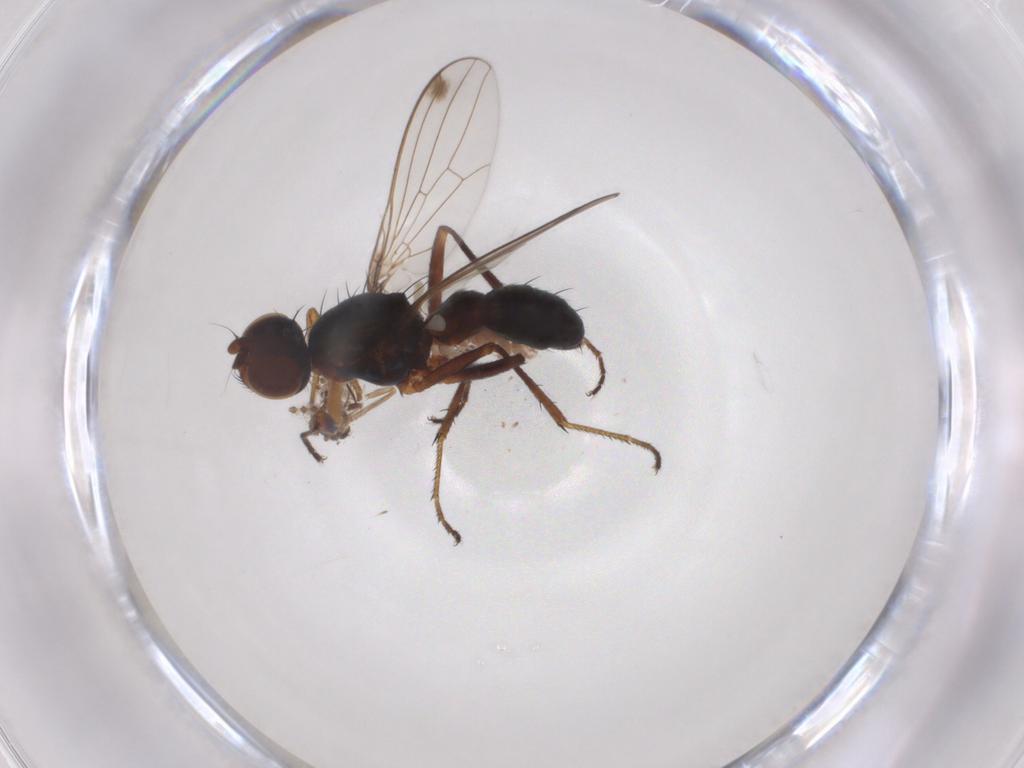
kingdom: Animalia
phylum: Arthropoda
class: Insecta
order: Diptera
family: Sepsidae
